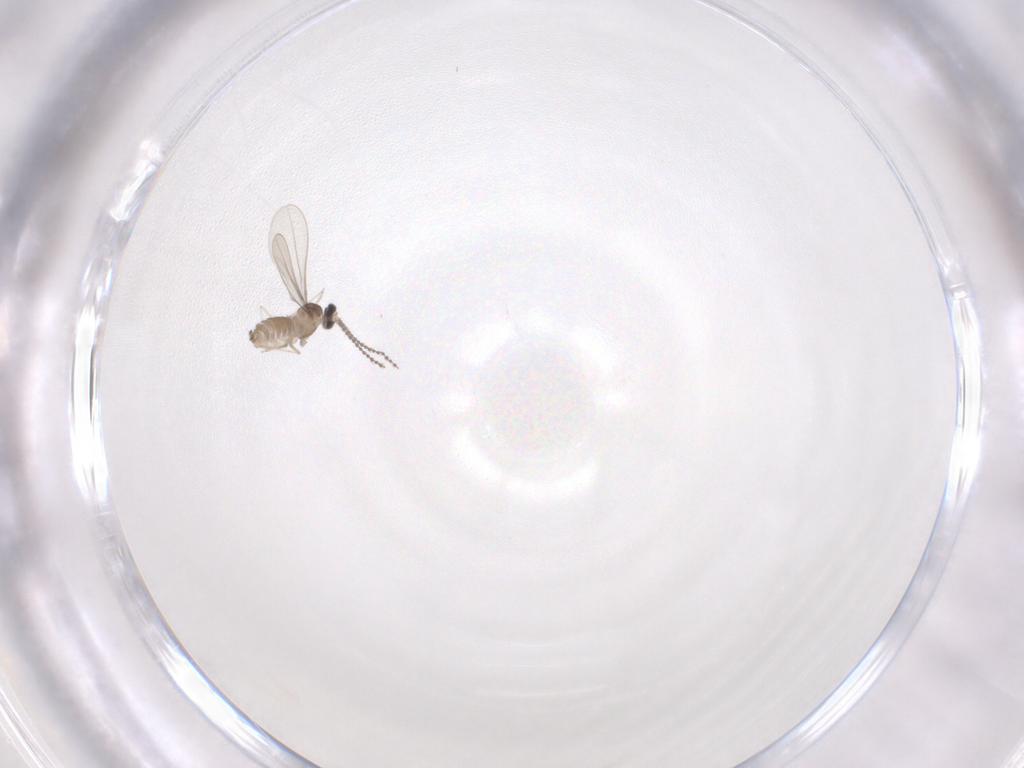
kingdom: Animalia
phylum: Arthropoda
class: Insecta
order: Diptera
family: Cecidomyiidae
